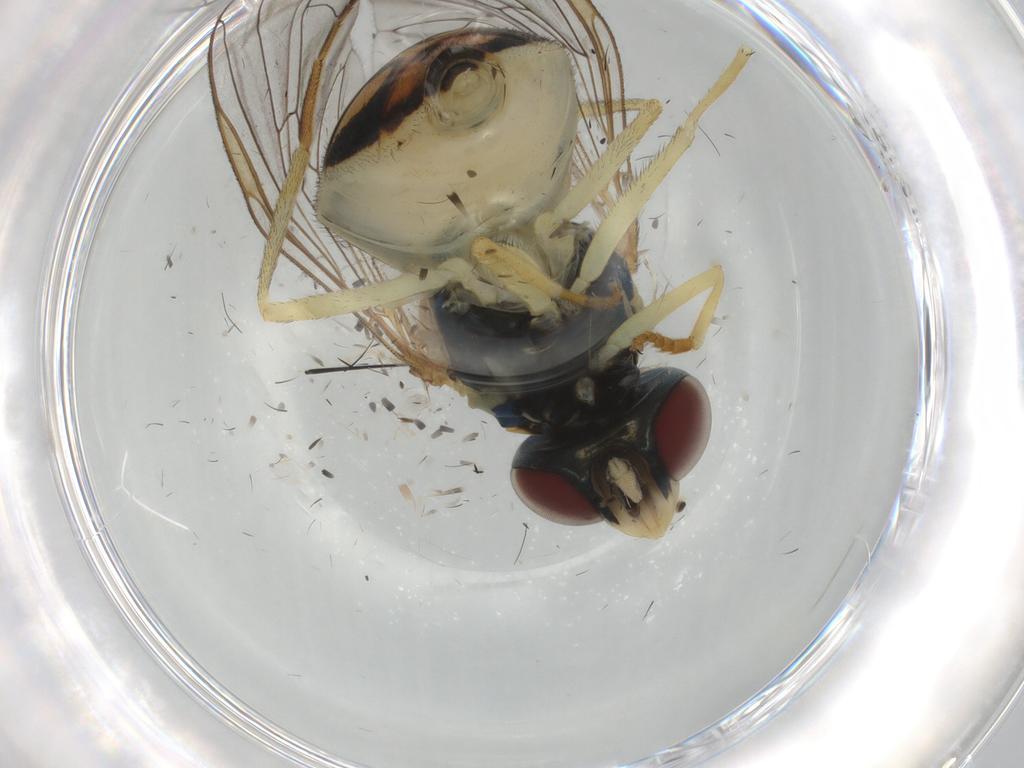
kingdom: Animalia
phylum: Arthropoda
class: Insecta
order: Diptera
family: Syrphidae
